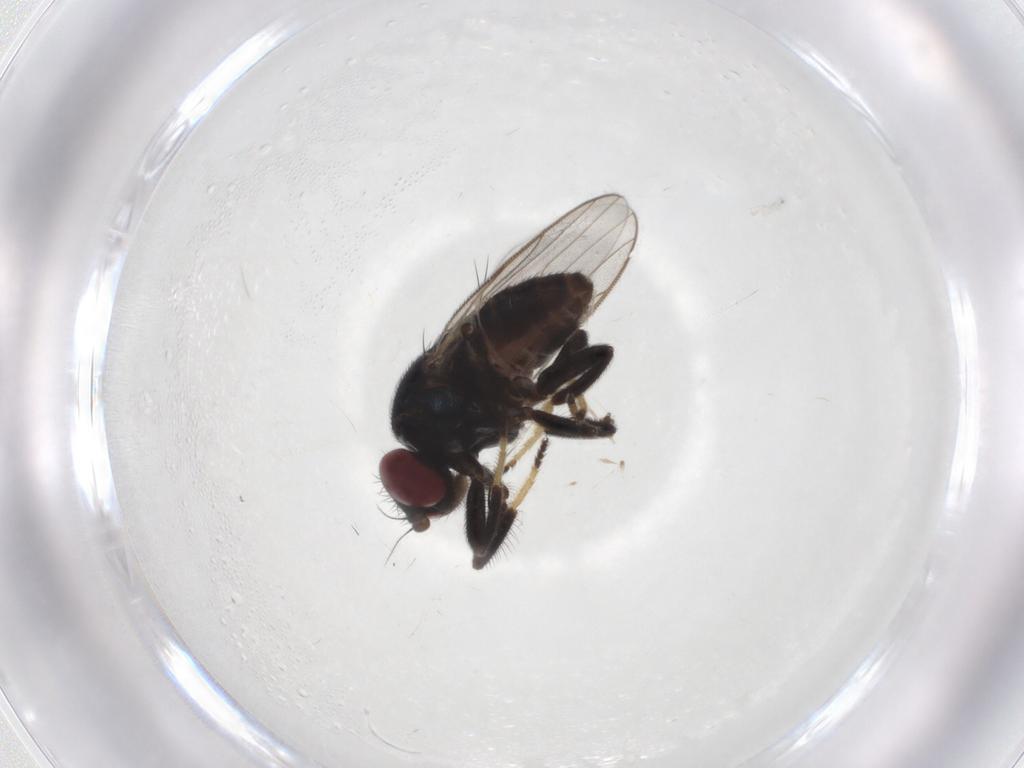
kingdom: Animalia
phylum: Arthropoda
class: Insecta
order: Diptera
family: Chloropidae
